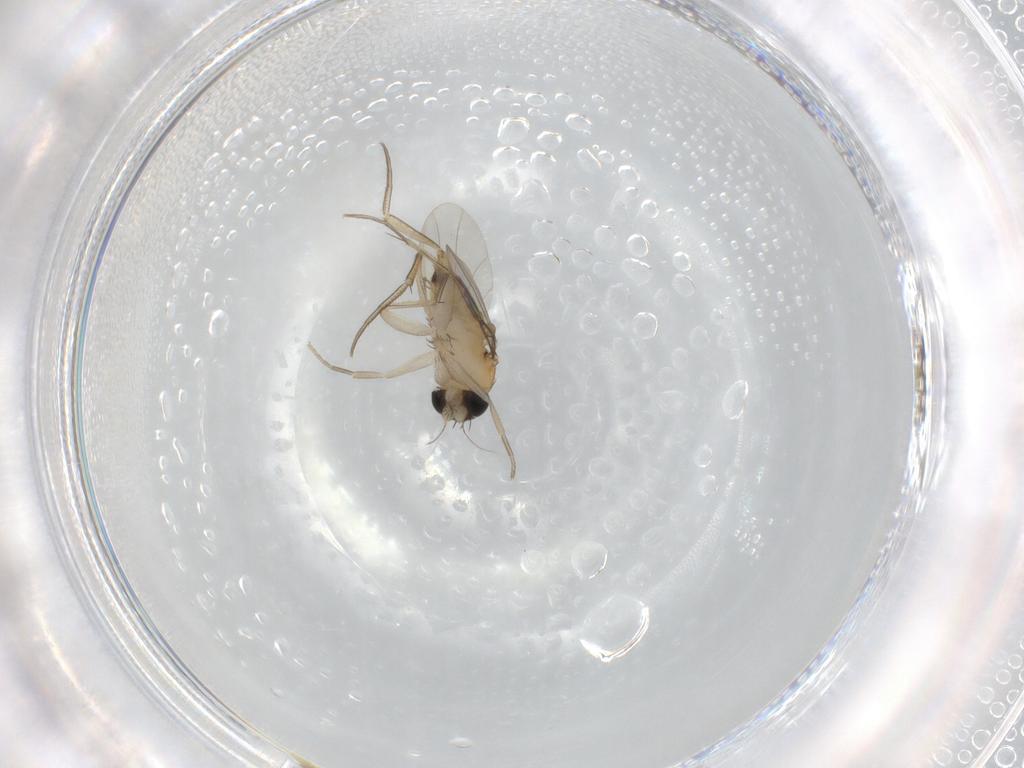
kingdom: Animalia
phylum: Arthropoda
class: Insecta
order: Diptera
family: Phoridae
